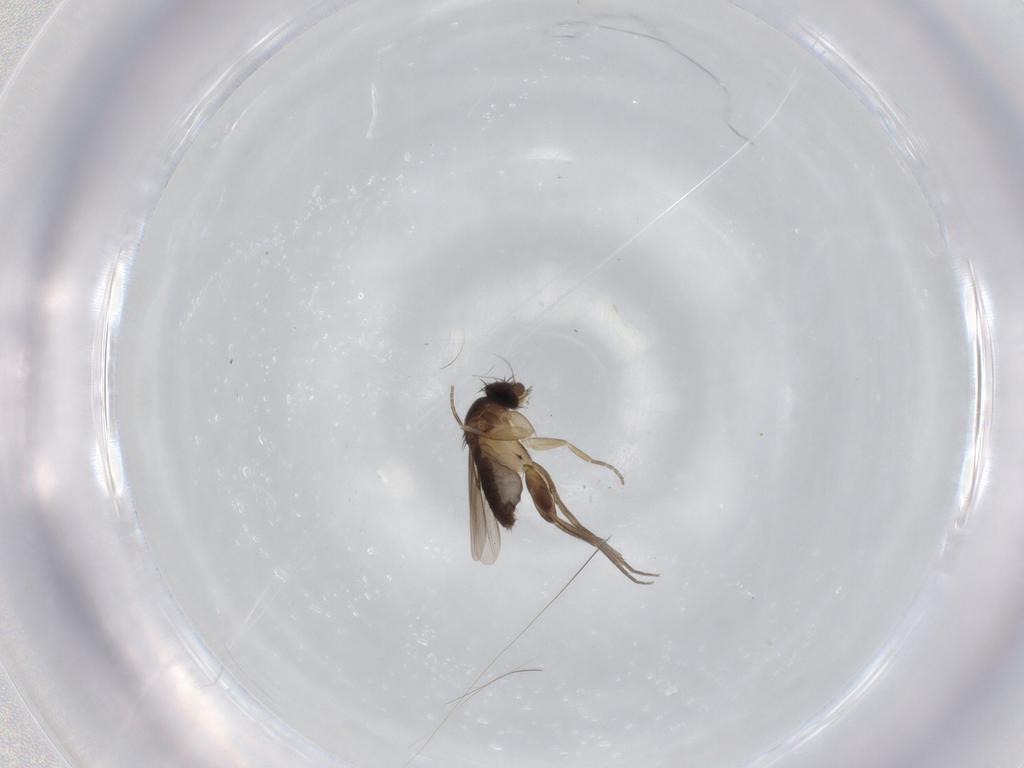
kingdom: Animalia
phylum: Arthropoda
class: Insecta
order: Diptera
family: Phoridae
